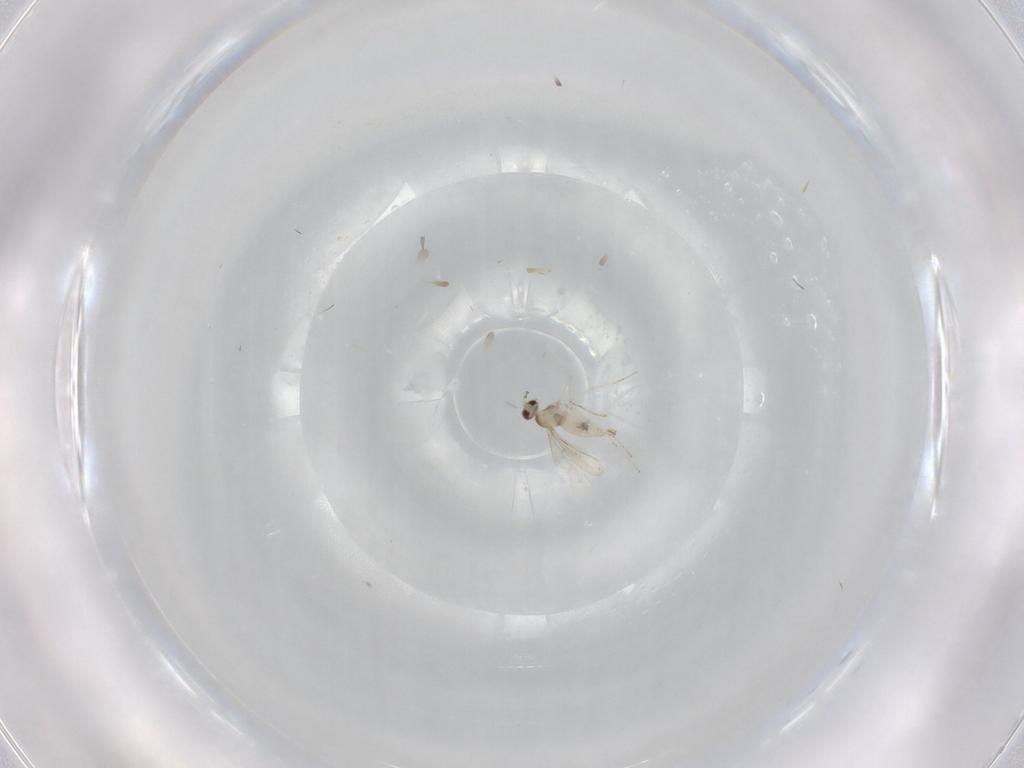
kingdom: Animalia
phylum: Arthropoda
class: Insecta
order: Diptera
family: Cecidomyiidae
